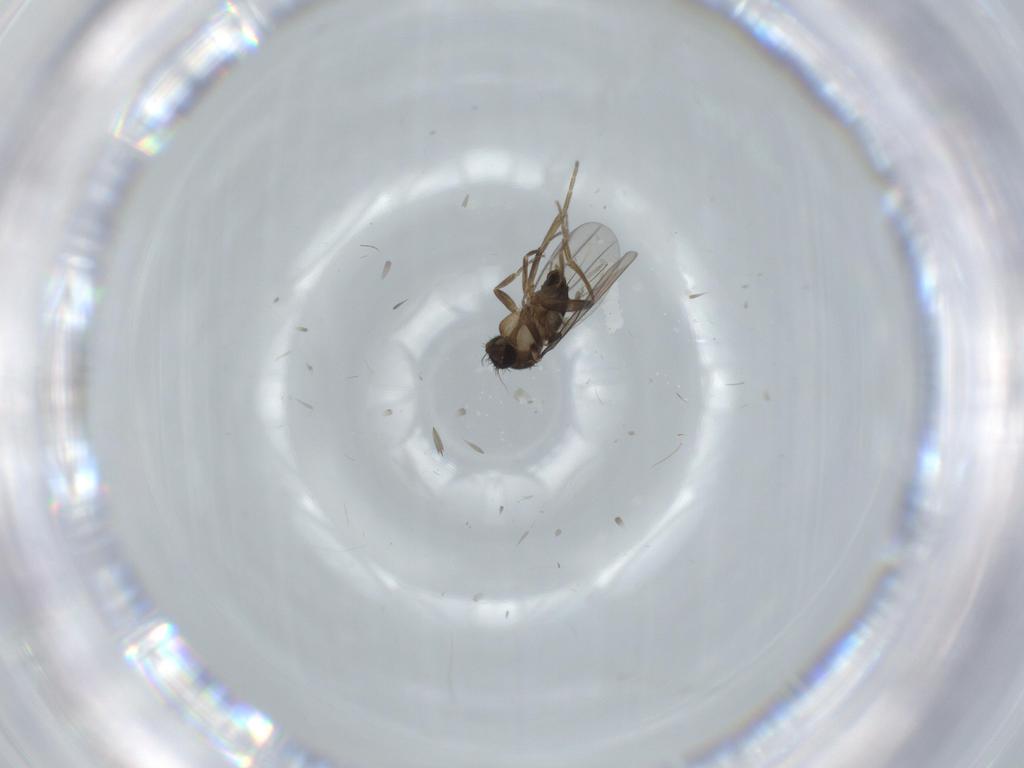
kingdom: Animalia
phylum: Arthropoda
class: Insecta
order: Diptera
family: Phoridae
